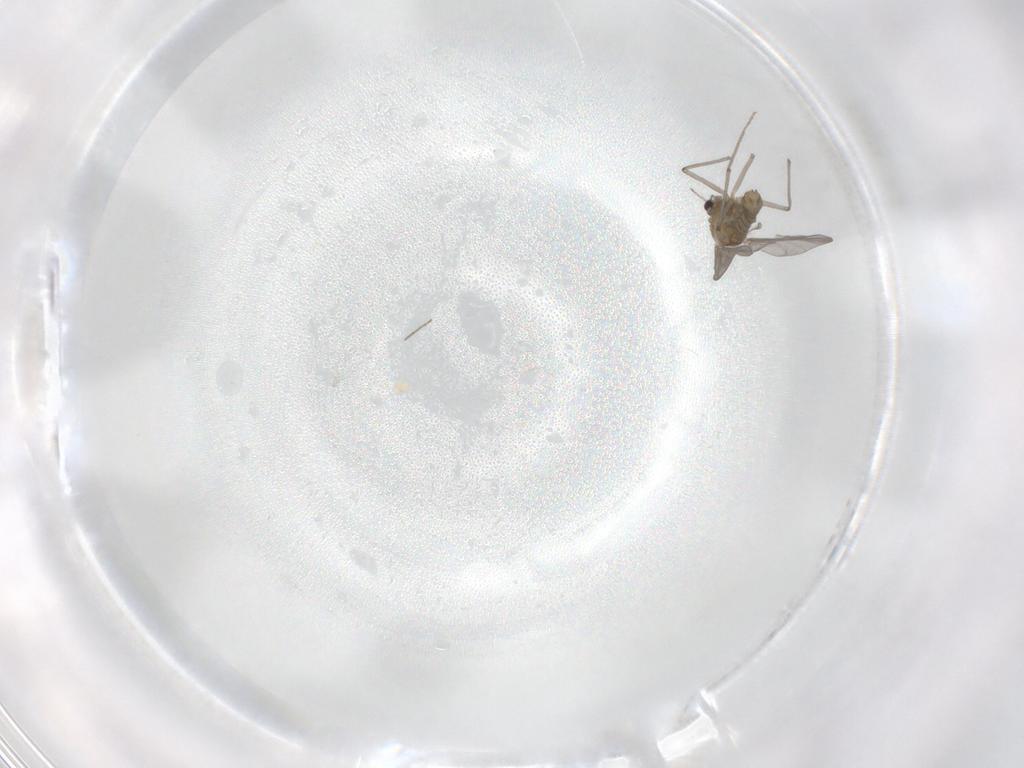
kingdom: Animalia
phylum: Arthropoda
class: Insecta
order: Diptera
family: Chironomidae
